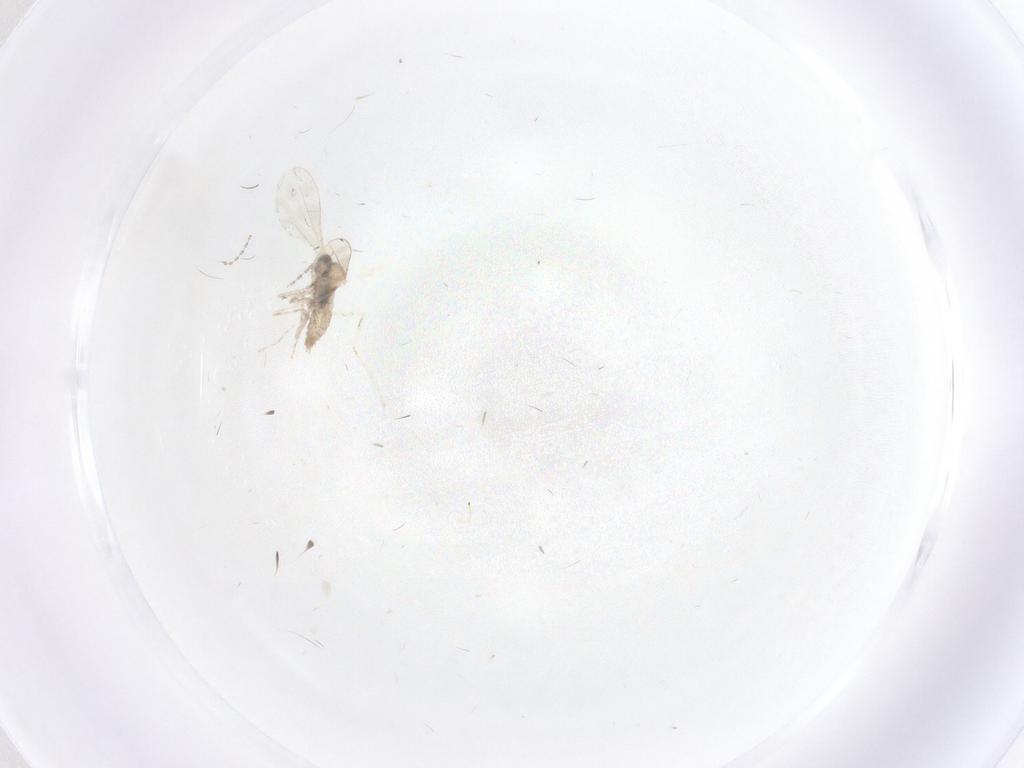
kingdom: Animalia
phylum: Arthropoda
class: Insecta
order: Diptera
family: Cecidomyiidae
